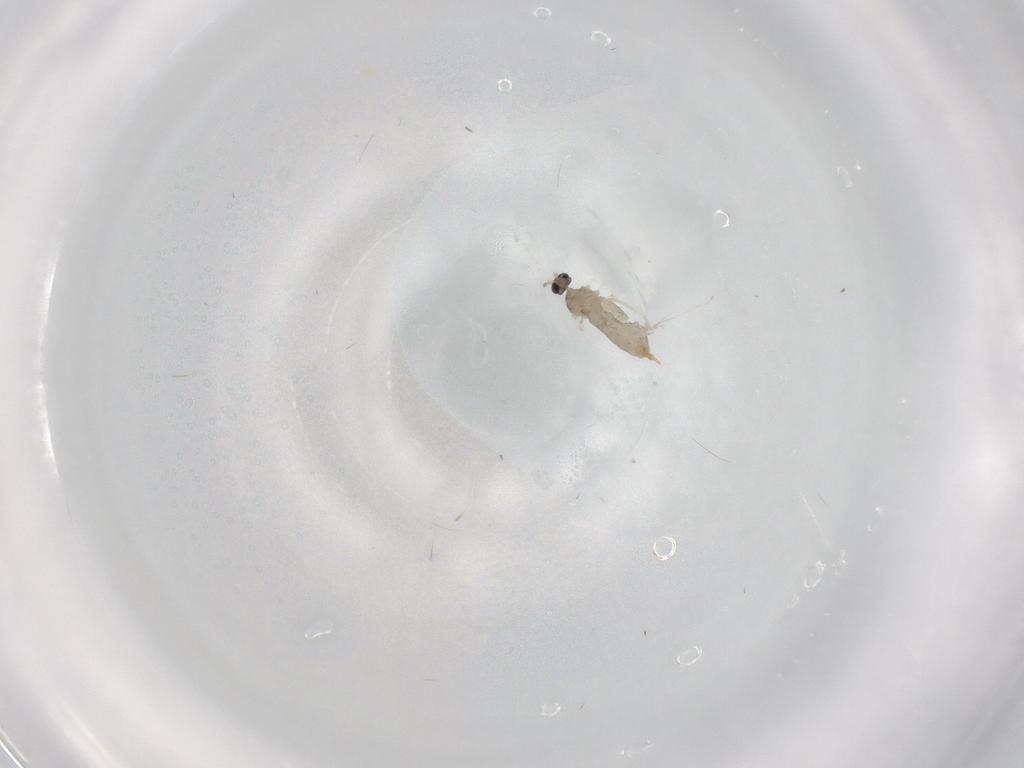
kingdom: Animalia
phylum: Arthropoda
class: Insecta
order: Diptera
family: Cecidomyiidae
